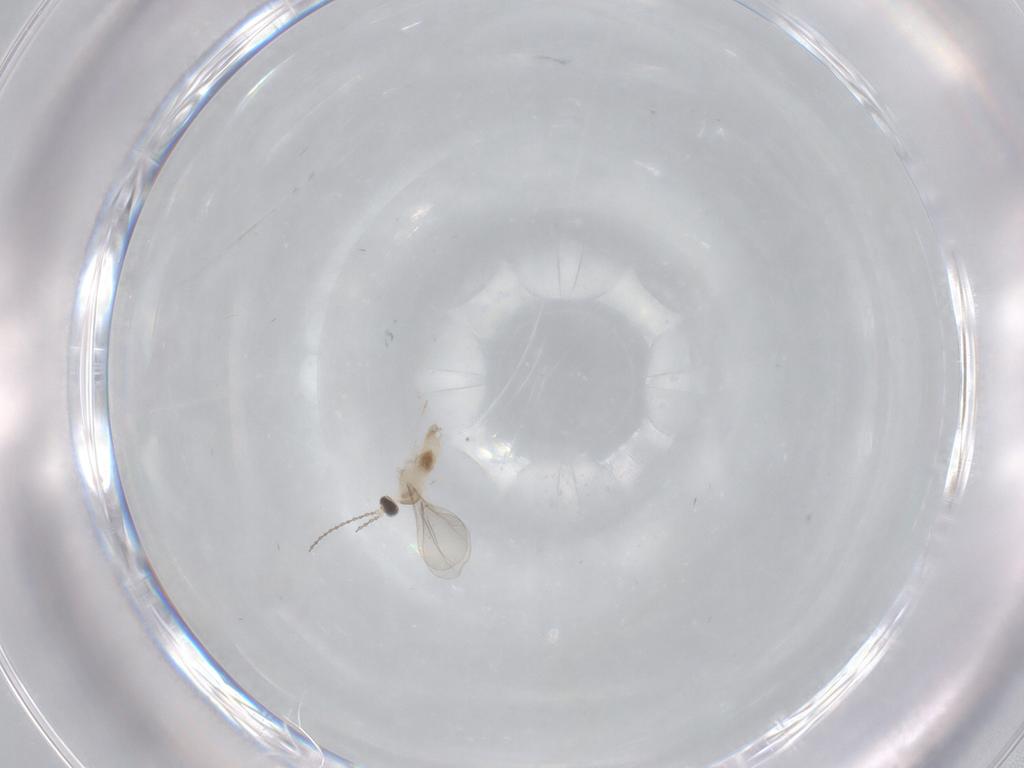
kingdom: Animalia
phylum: Arthropoda
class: Insecta
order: Diptera
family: Cecidomyiidae
